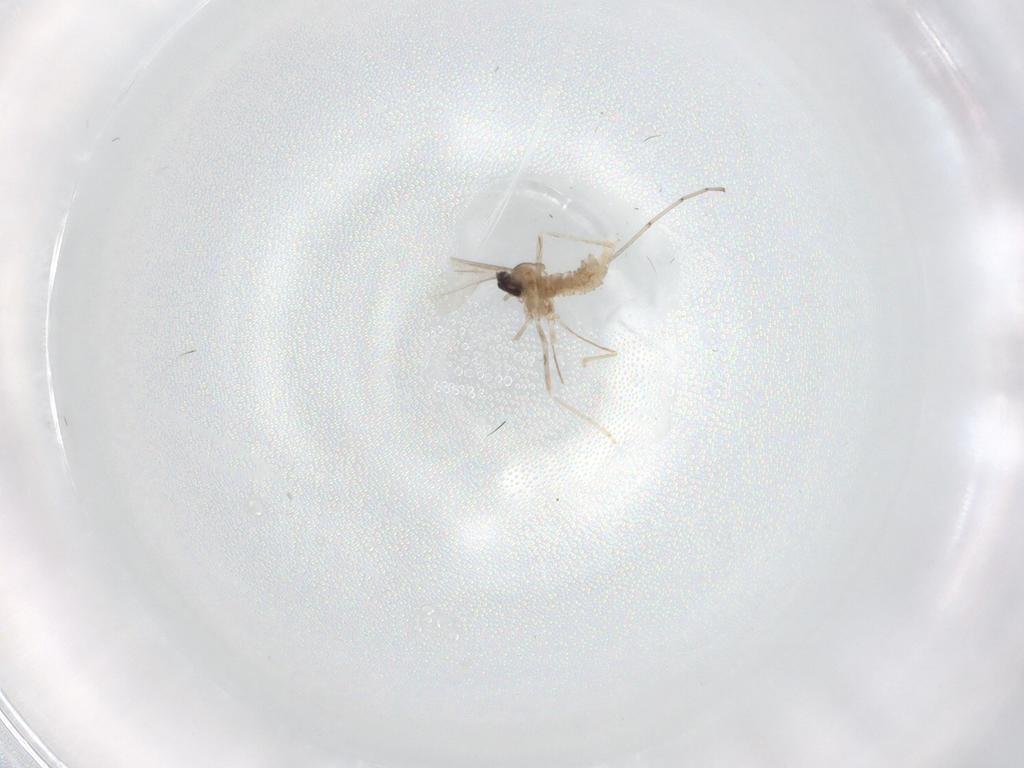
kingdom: Animalia
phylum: Arthropoda
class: Insecta
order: Diptera
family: Cecidomyiidae
